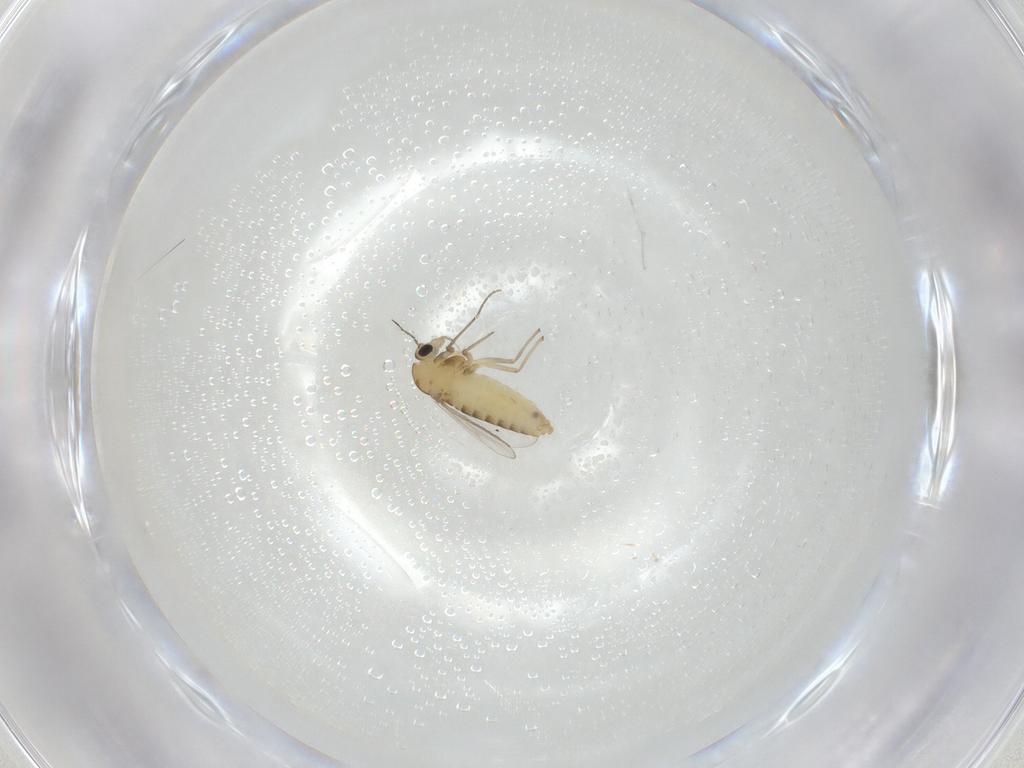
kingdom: Animalia
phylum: Arthropoda
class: Insecta
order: Diptera
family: Chironomidae
